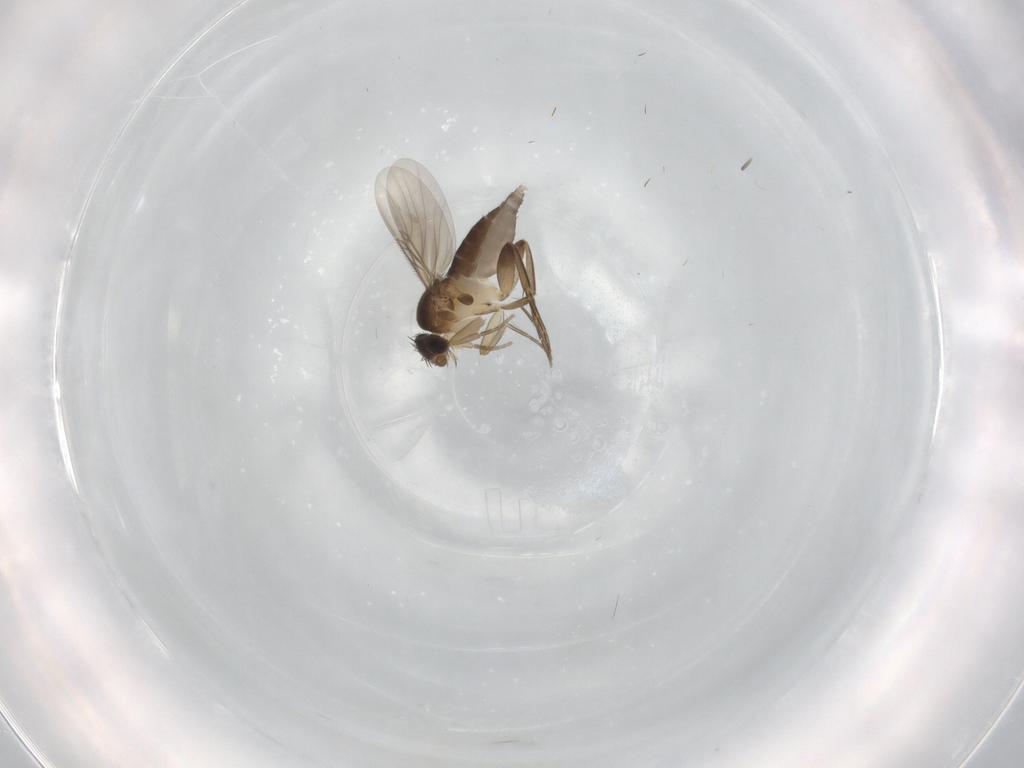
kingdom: Animalia
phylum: Arthropoda
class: Insecta
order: Diptera
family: Phoridae
